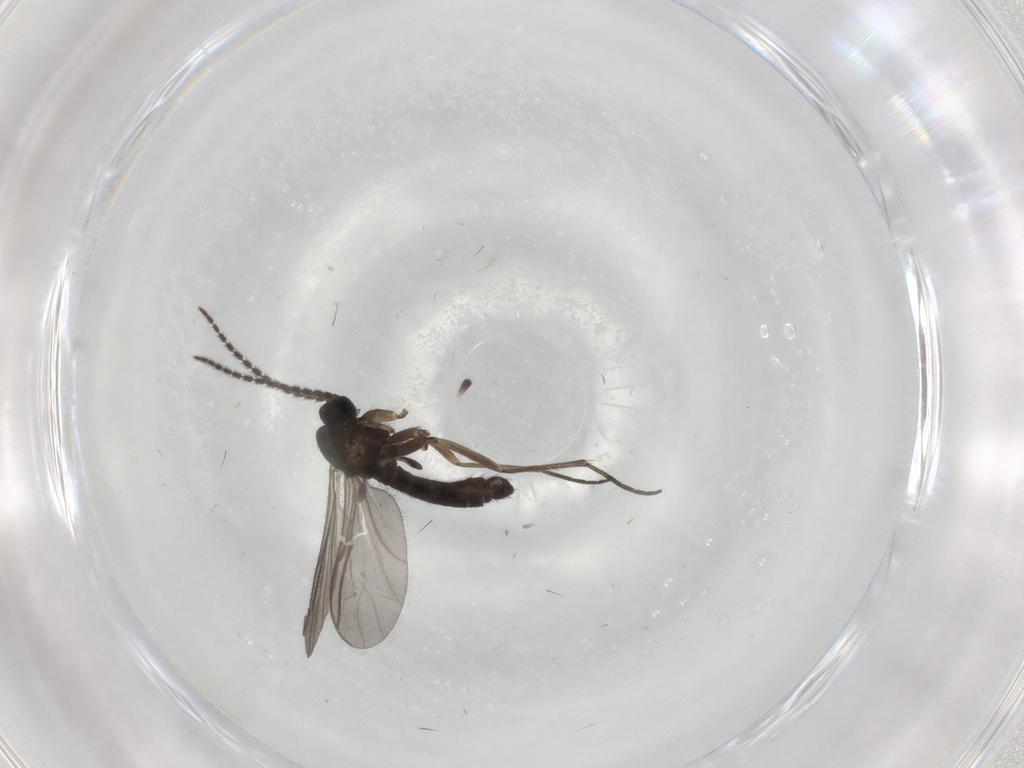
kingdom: Animalia
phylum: Arthropoda
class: Insecta
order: Diptera
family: Sciaridae
